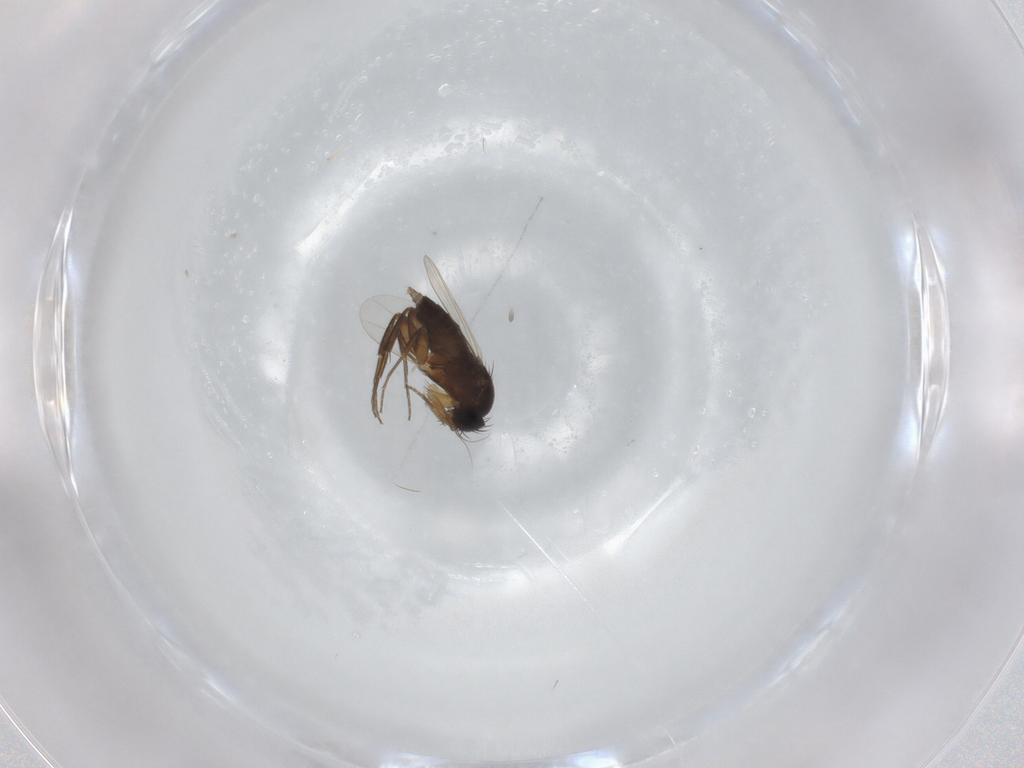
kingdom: Animalia
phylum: Arthropoda
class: Insecta
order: Diptera
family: Phoridae
